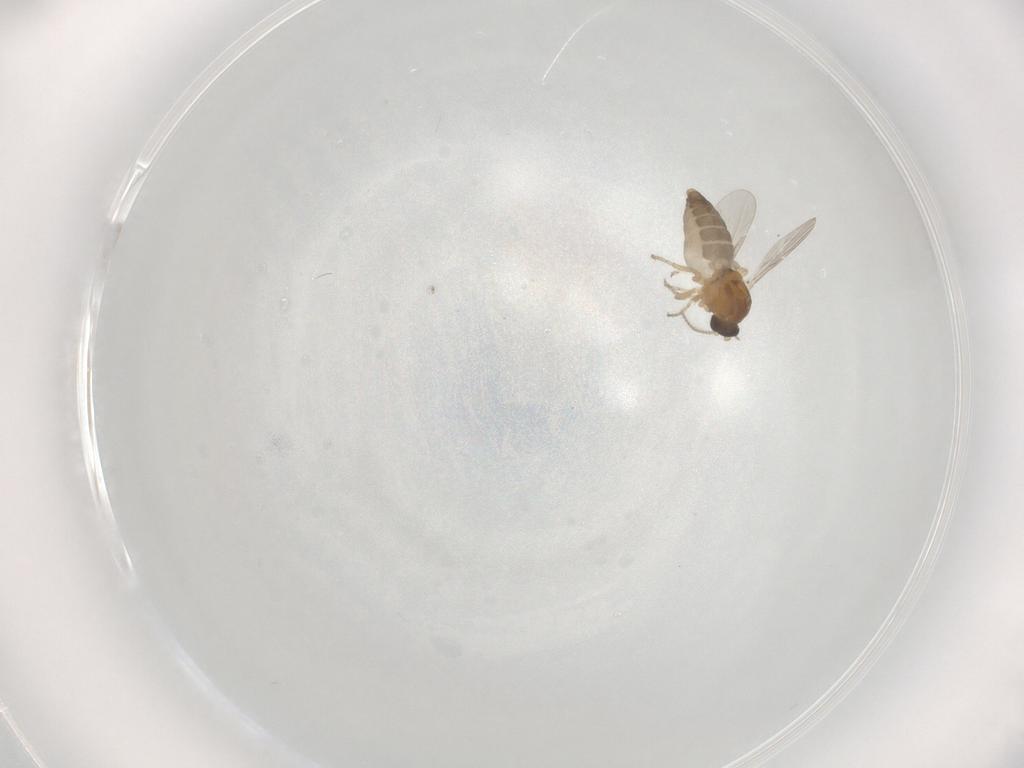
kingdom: Animalia
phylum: Arthropoda
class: Insecta
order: Diptera
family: Ceratopogonidae
